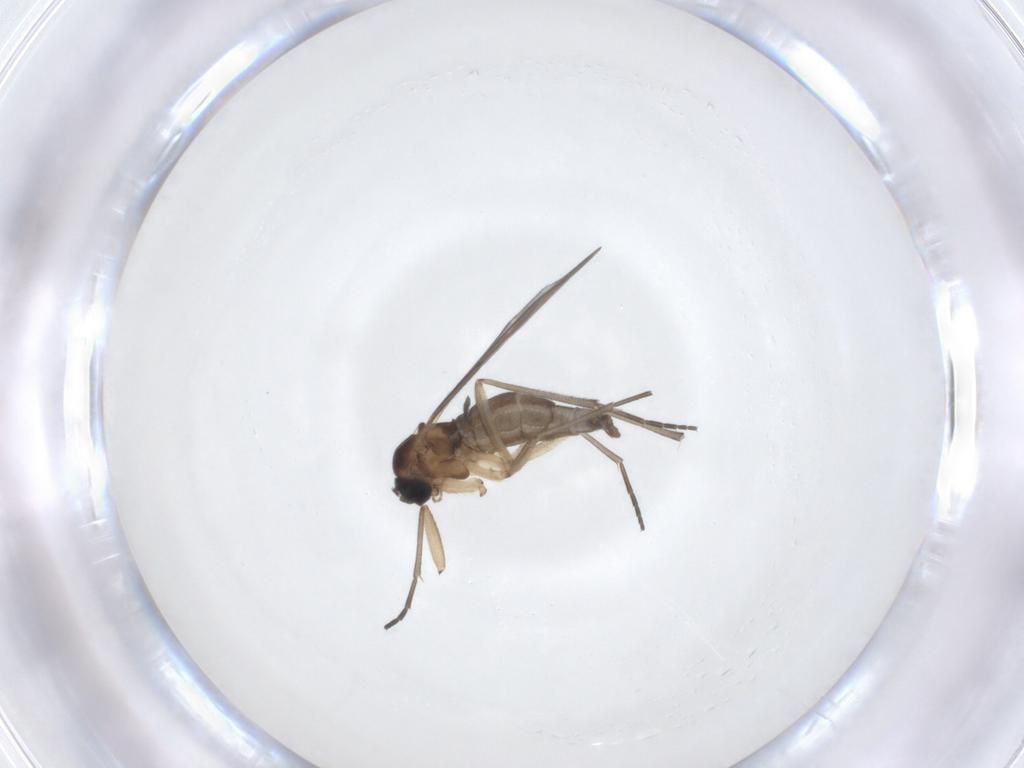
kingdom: Animalia
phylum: Arthropoda
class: Insecta
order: Diptera
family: Sciaridae
